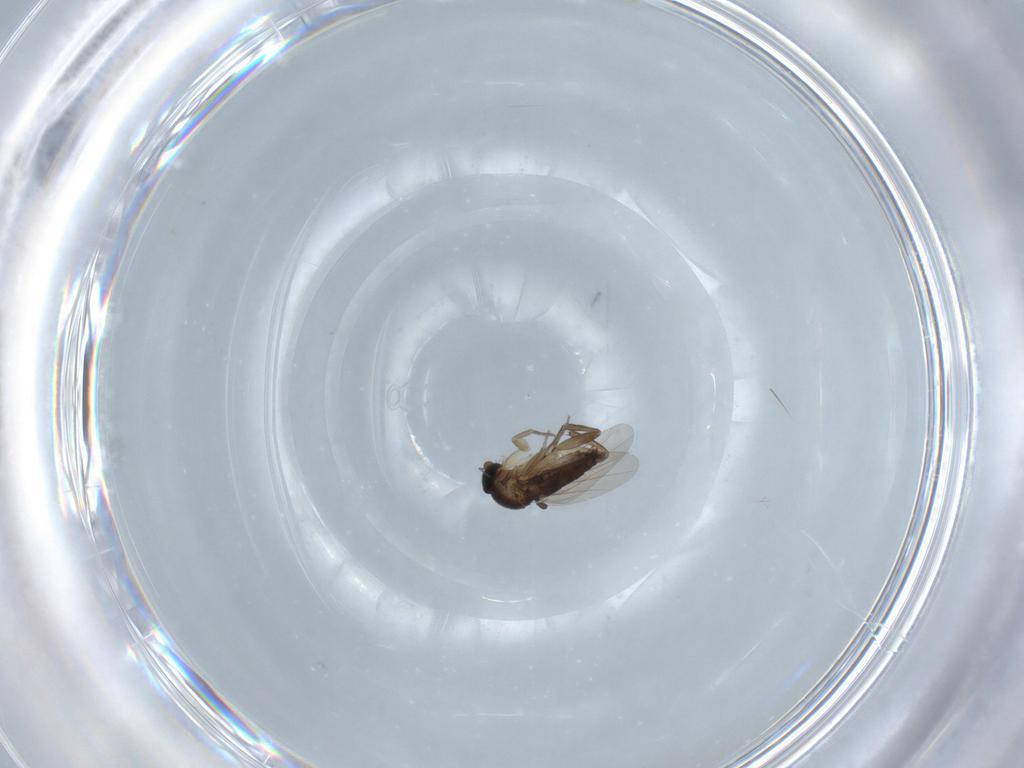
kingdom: Animalia
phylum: Arthropoda
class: Insecta
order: Diptera
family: Phoridae
